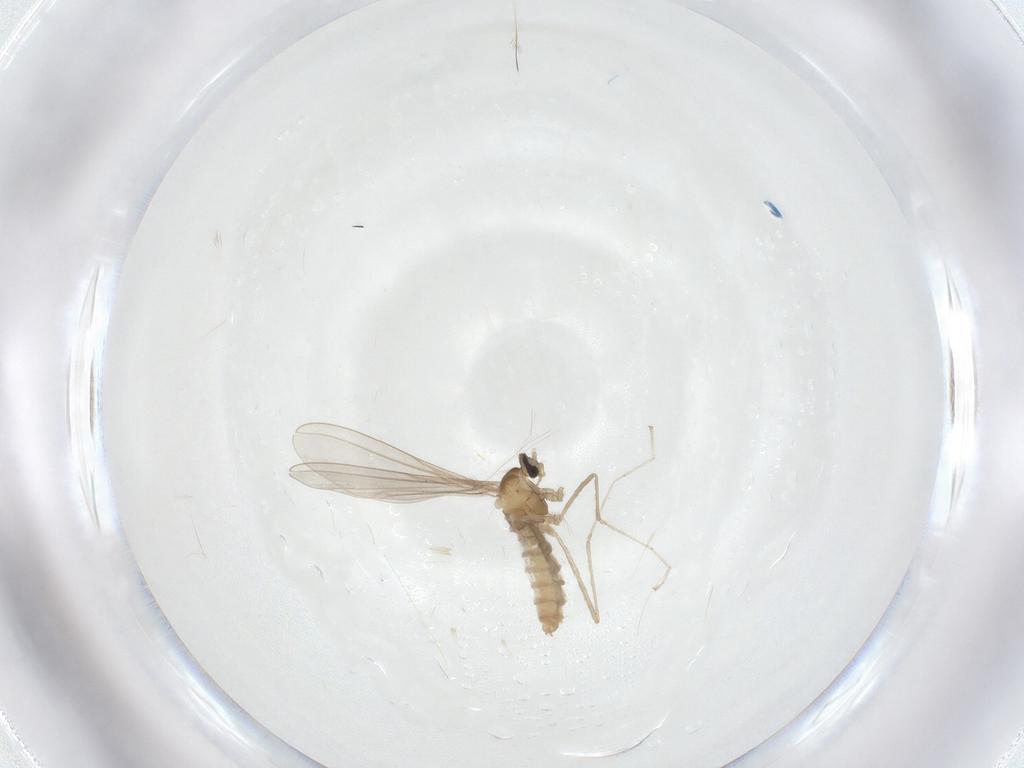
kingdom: Animalia
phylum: Arthropoda
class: Insecta
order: Diptera
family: Cecidomyiidae
